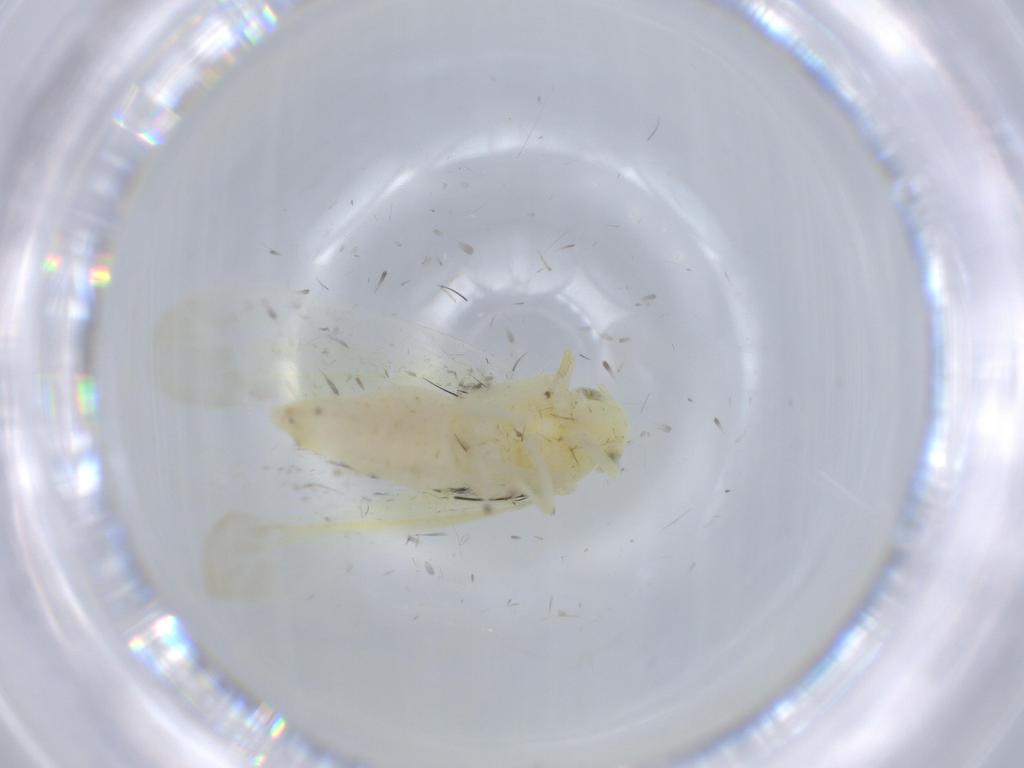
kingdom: Animalia
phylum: Arthropoda
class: Insecta
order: Hemiptera
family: Cicadellidae
